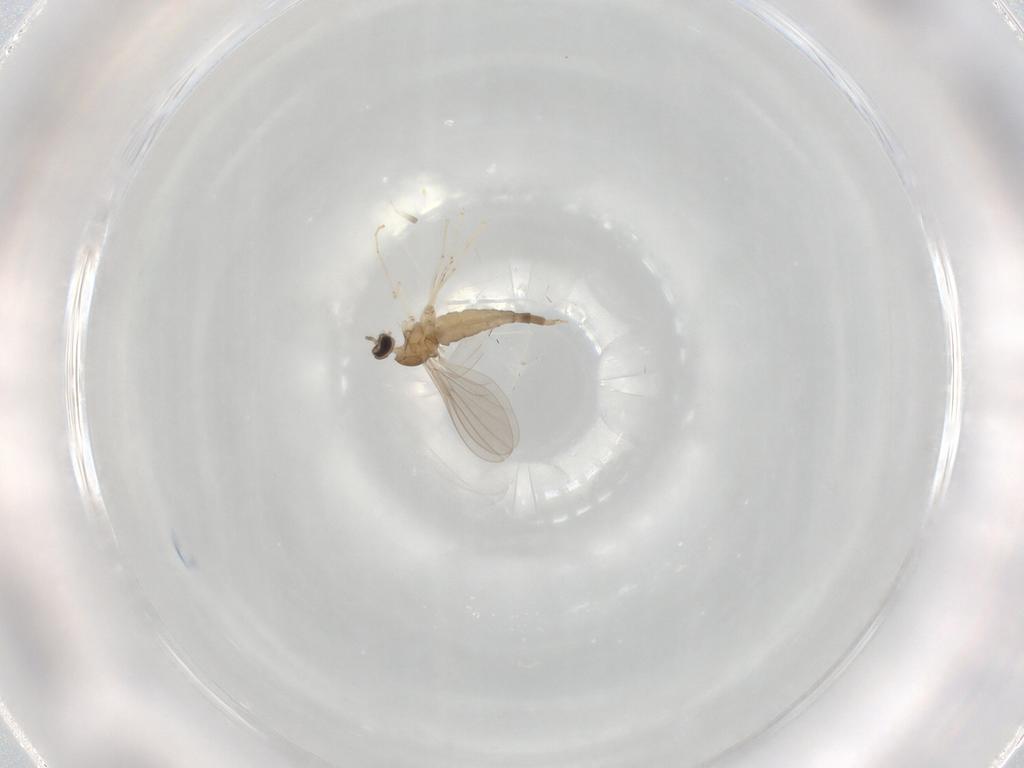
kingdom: Animalia
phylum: Arthropoda
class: Insecta
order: Diptera
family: Cecidomyiidae
